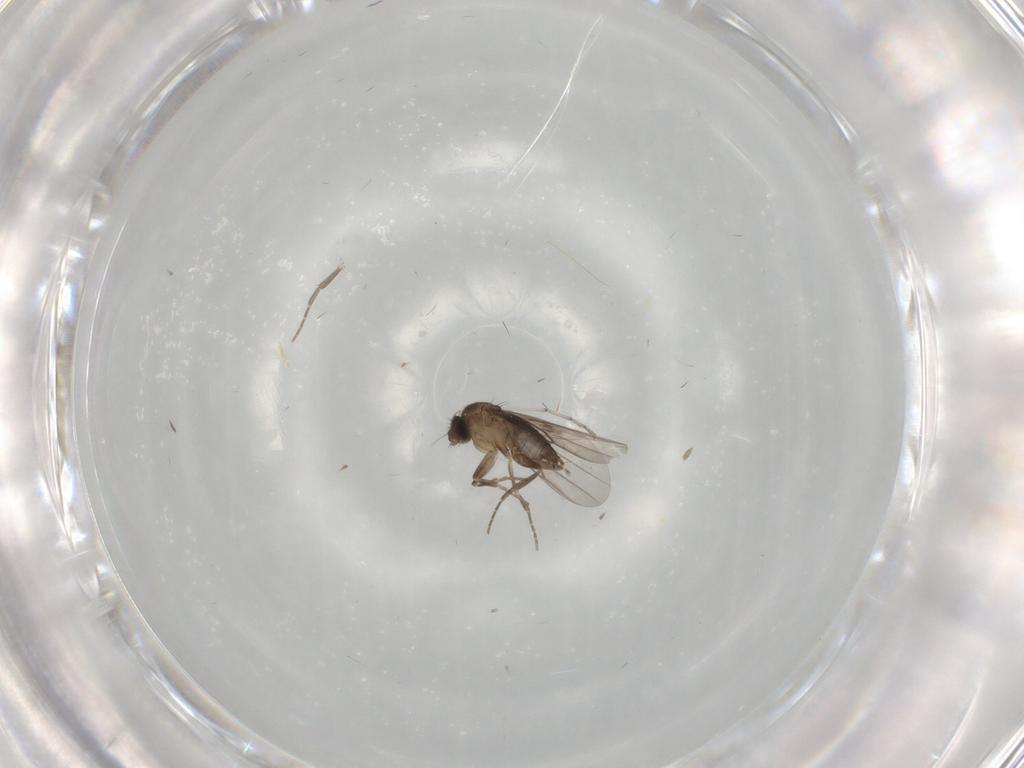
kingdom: Animalia
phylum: Arthropoda
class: Insecta
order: Diptera
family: Cecidomyiidae
